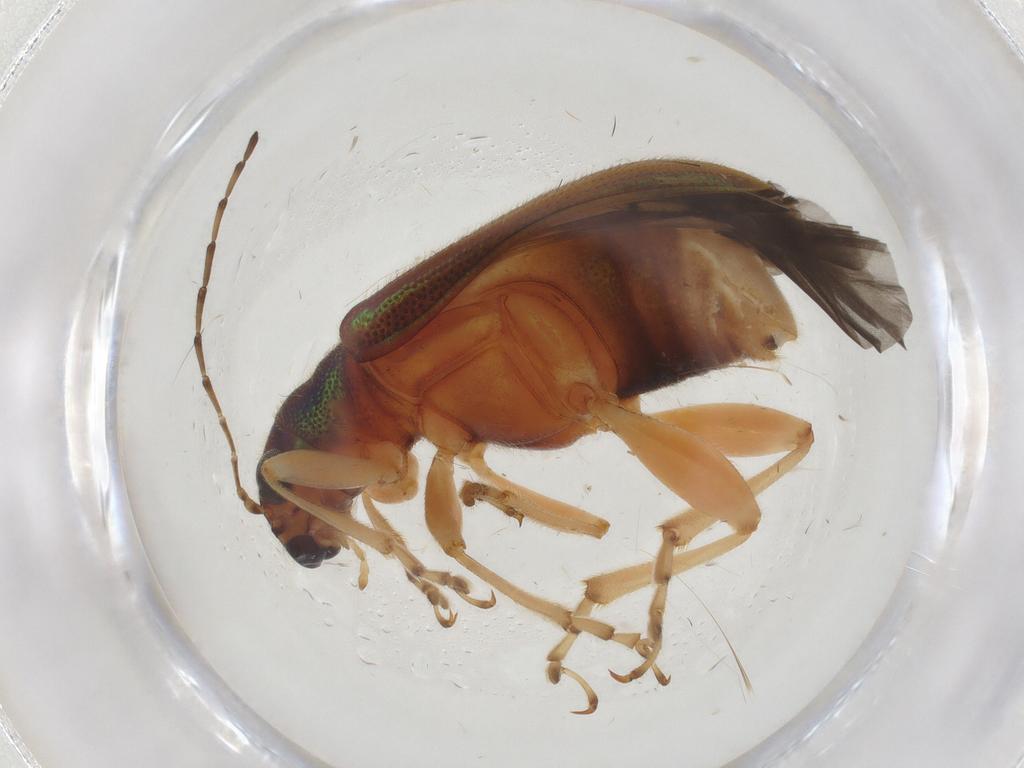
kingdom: Animalia
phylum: Arthropoda
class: Insecta
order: Coleoptera
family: Chrysomelidae
